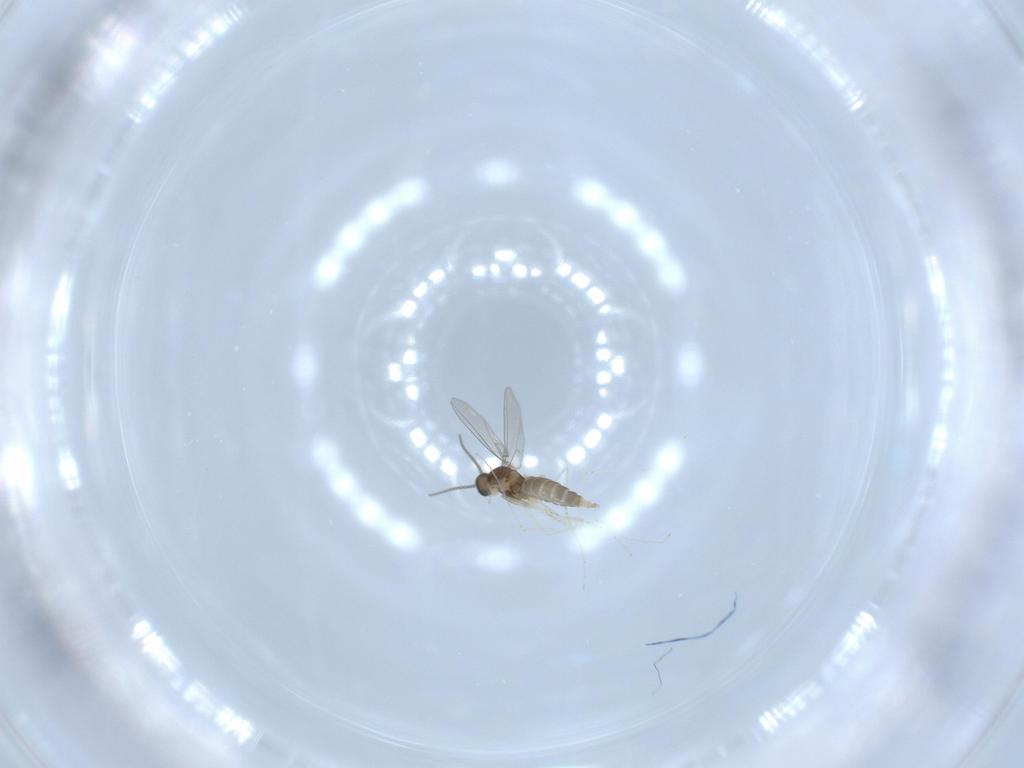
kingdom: Animalia
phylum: Arthropoda
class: Insecta
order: Diptera
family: Cecidomyiidae
